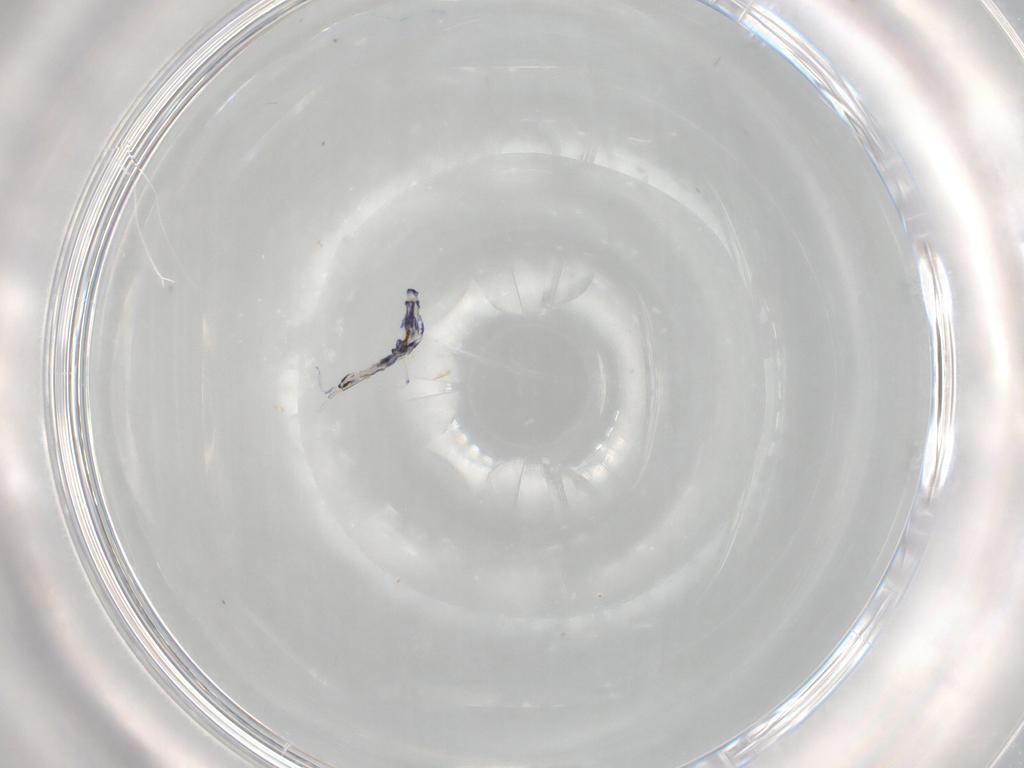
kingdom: Animalia
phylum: Arthropoda
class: Collembola
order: Entomobryomorpha
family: Entomobryidae
